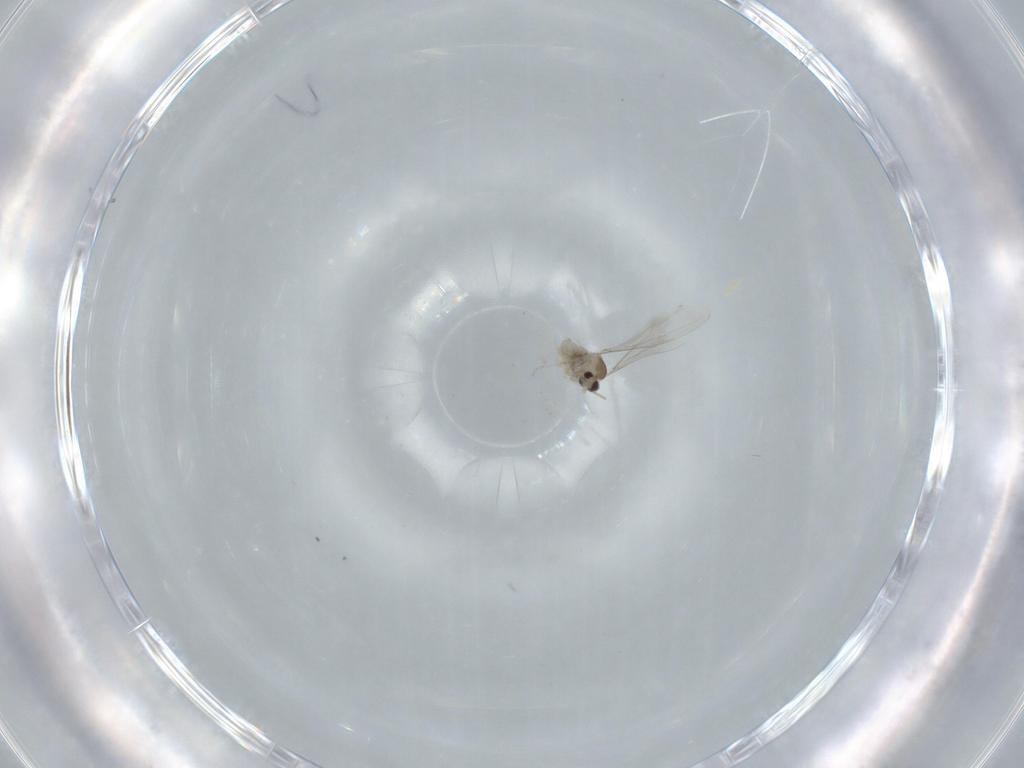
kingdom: Animalia
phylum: Arthropoda
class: Insecta
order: Diptera
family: Cecidomyiidae
